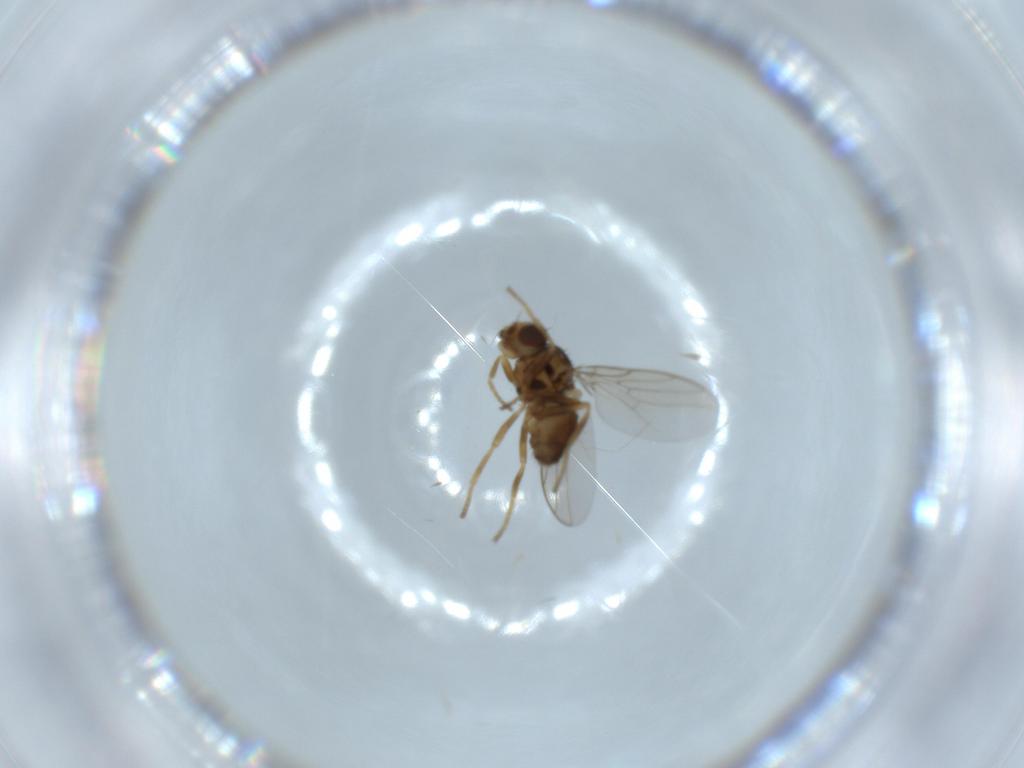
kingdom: Animalia
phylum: Arthropoda
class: Insecta
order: Diptera
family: Chloropidae
